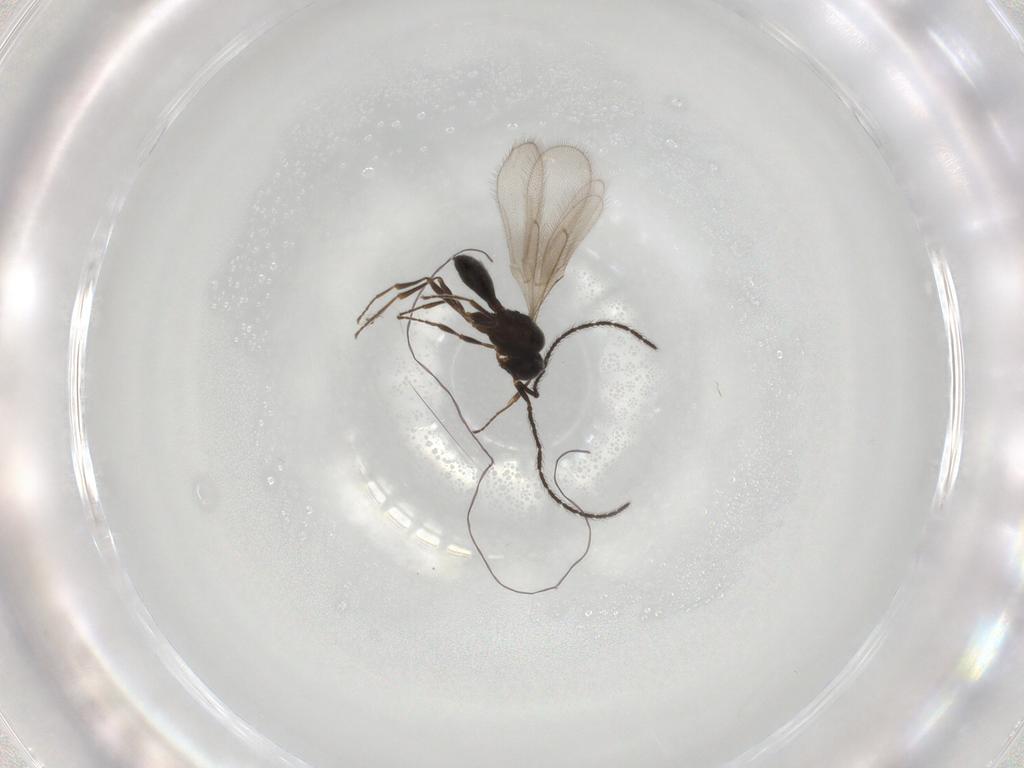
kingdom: Animalia
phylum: Arthropoda
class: Insecta
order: Hymenoptera
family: Scelionidae
